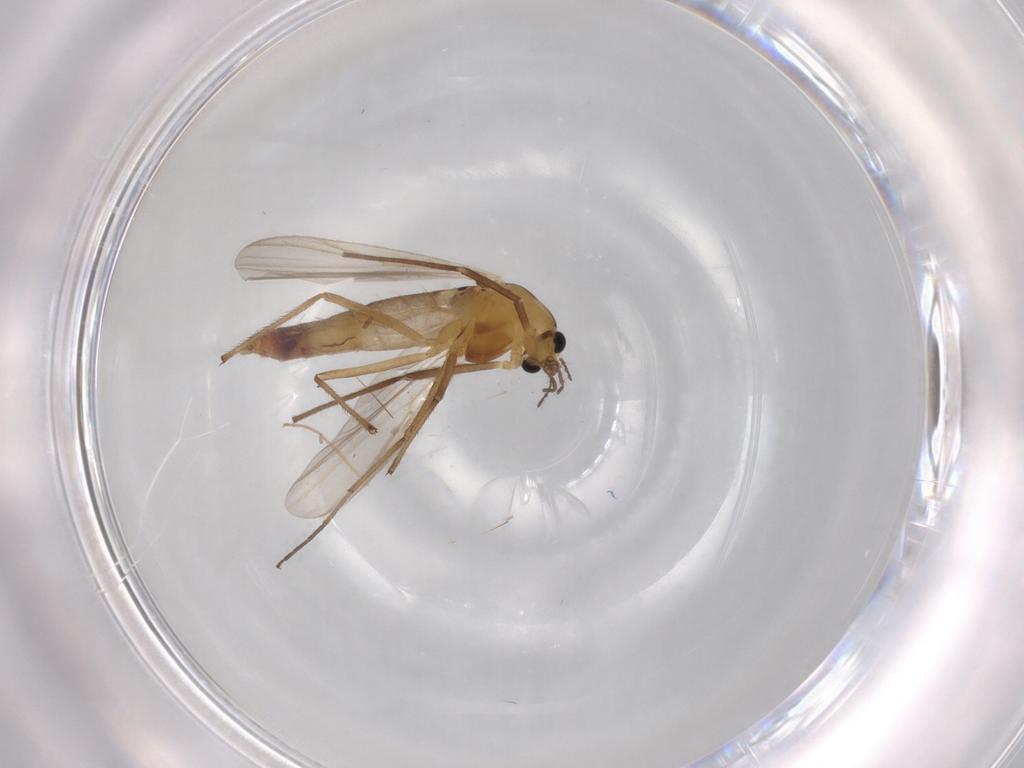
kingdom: Animalia
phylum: Arthropoda
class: Insecta
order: Diptera
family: Chironomidae
